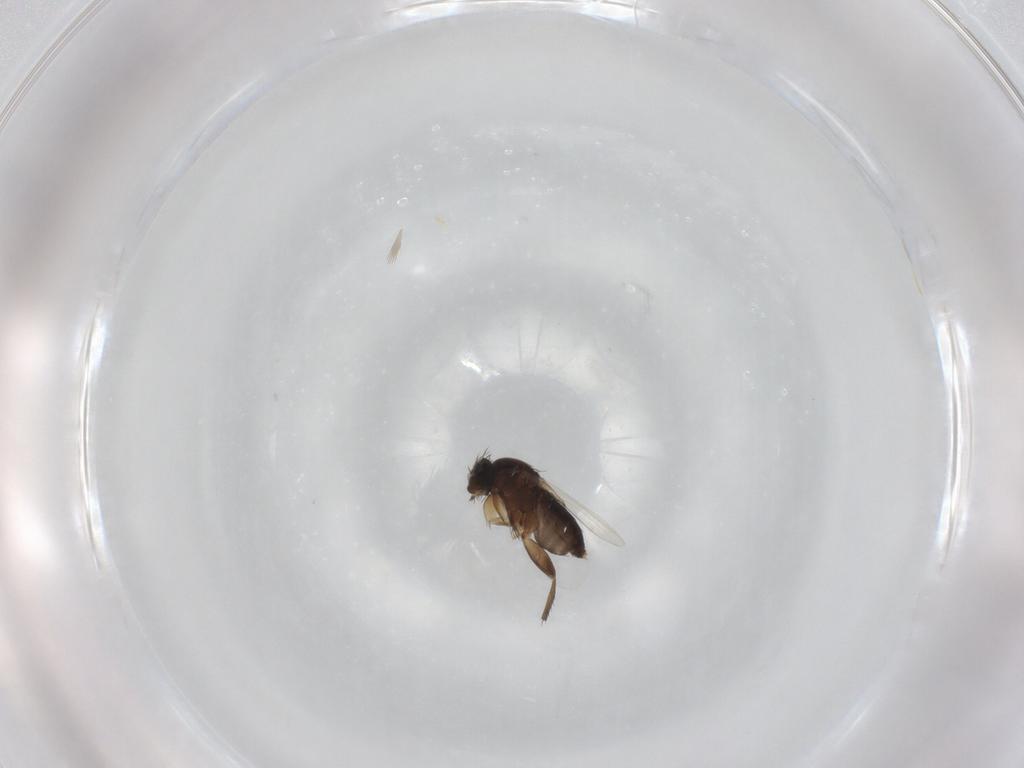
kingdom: Animalia
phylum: Arthropoda
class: Insecta
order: Diptera
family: Phoridae
